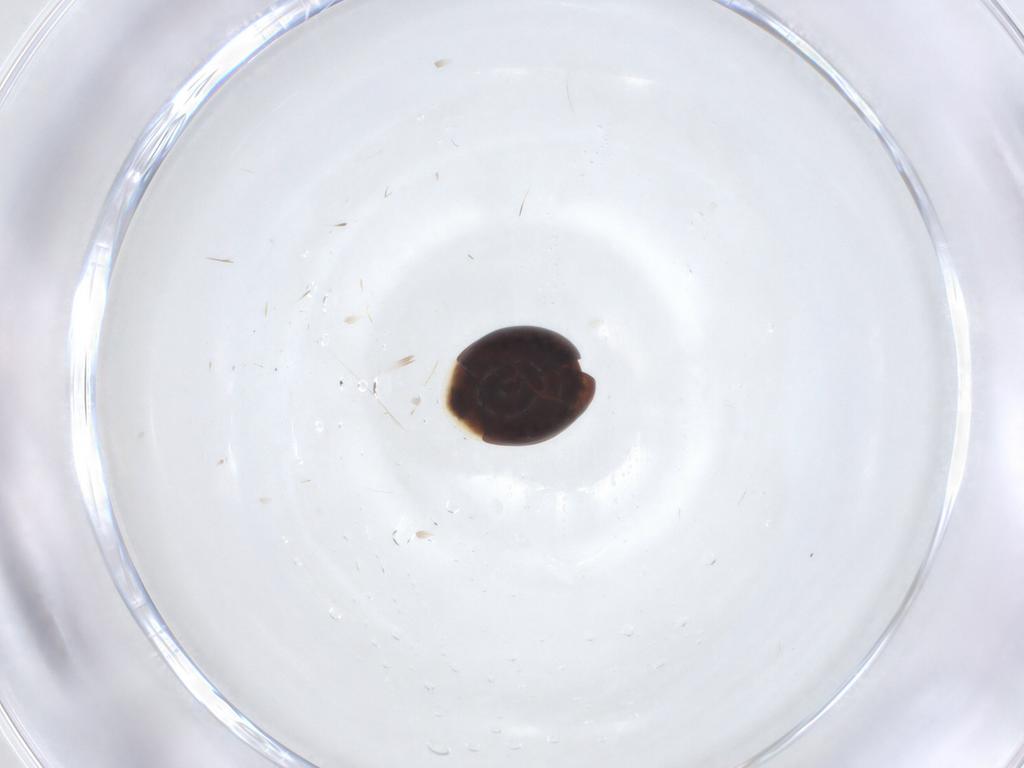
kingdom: Animalia
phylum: Arthropoda
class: Insecta
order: Coleoptera
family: Corylophidae
